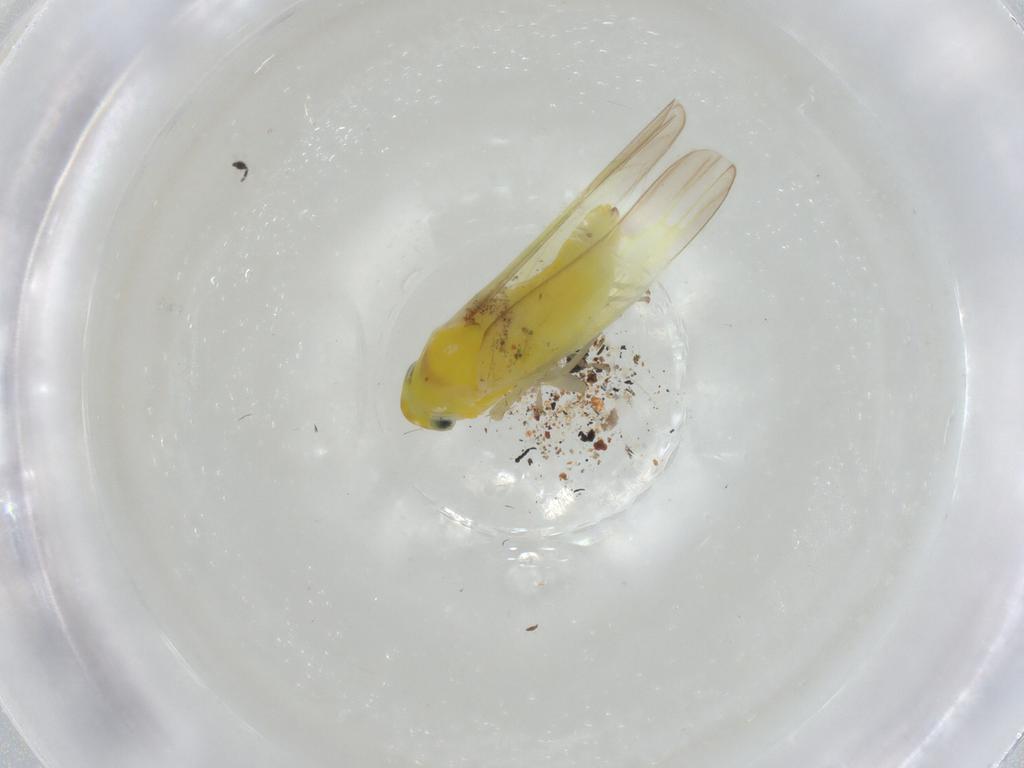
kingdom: Animalia
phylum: Arthropoda
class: Insecta
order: Hemiptera
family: Cicadellidae
